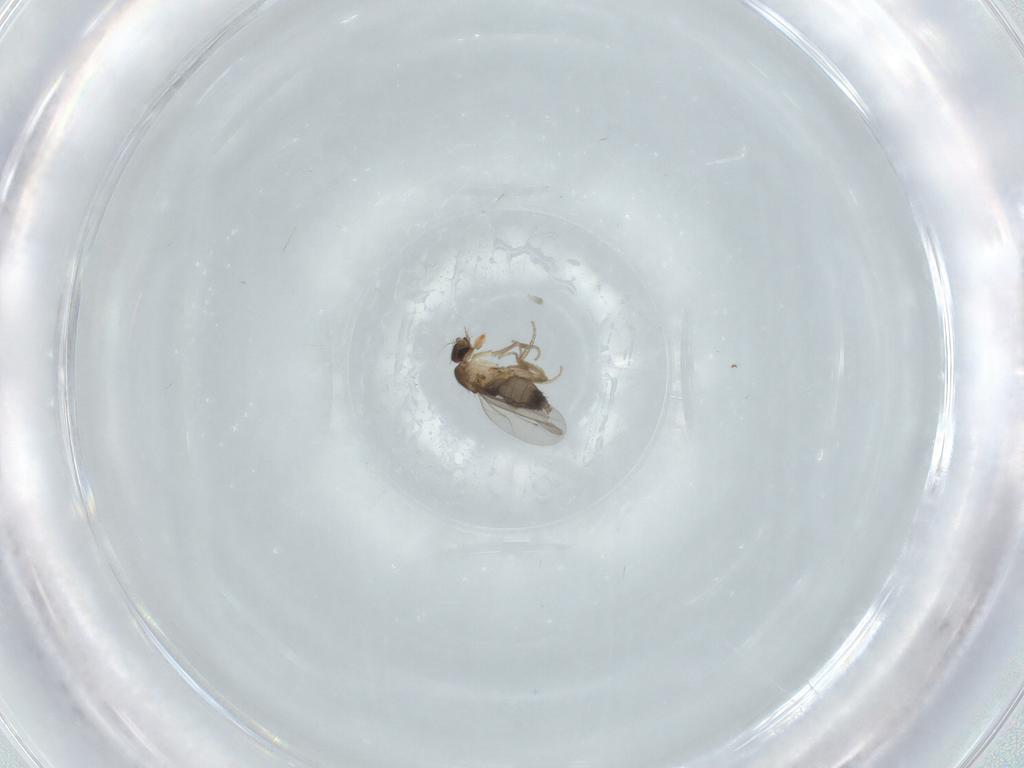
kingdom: Animalia
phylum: Arthropoda
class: Insecta
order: Diptera
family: Phoridae
